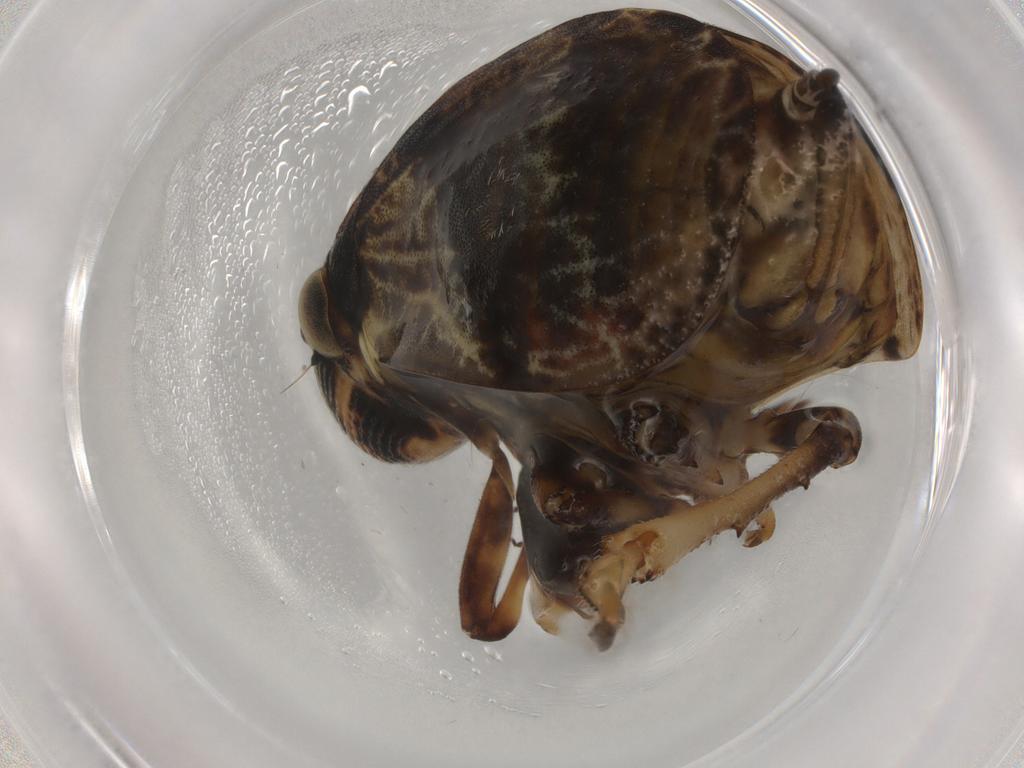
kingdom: Animalia
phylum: Arthropoda
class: Insecta
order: Hemiptera
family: Aphrophoridae
